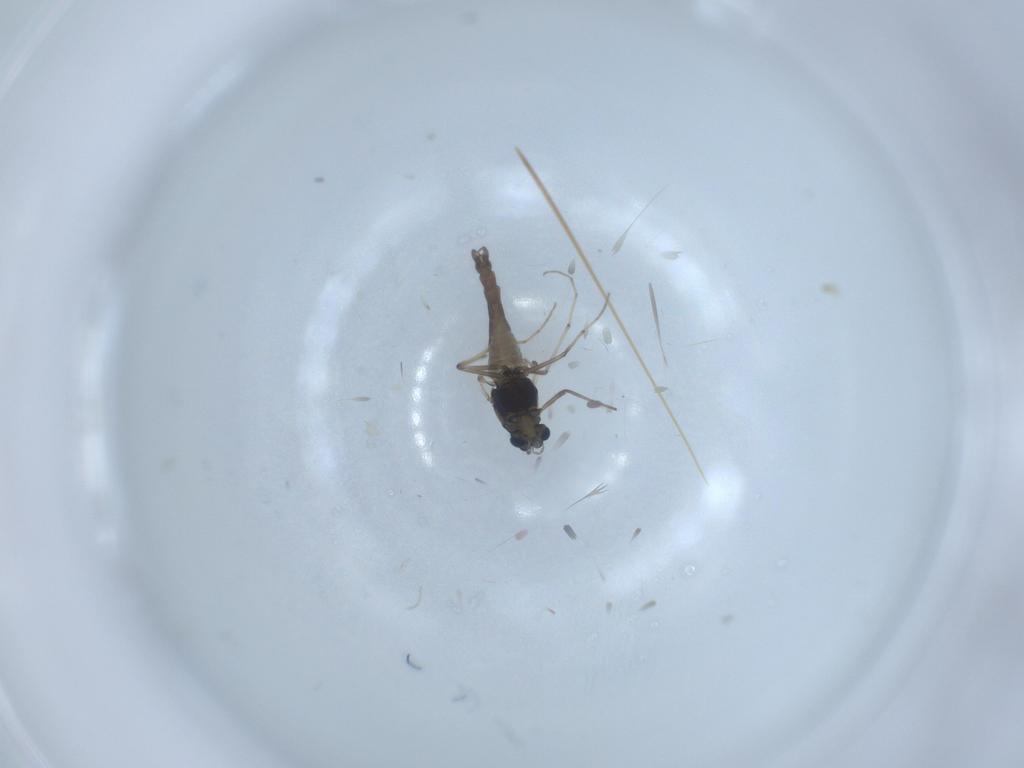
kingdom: Animalia
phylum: Arthropoda
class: Insecta
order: Diptera
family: Chironomidae
